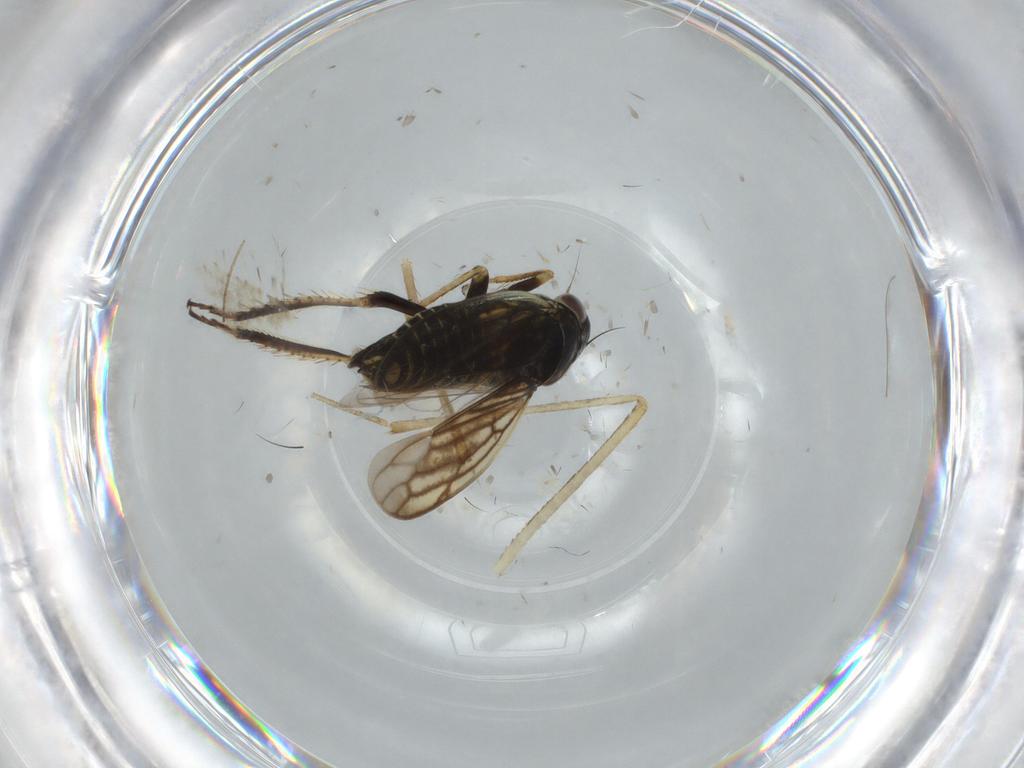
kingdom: Animalia
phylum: Arthropoda
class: Insecta
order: Hemiptera
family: Cicadellidae
